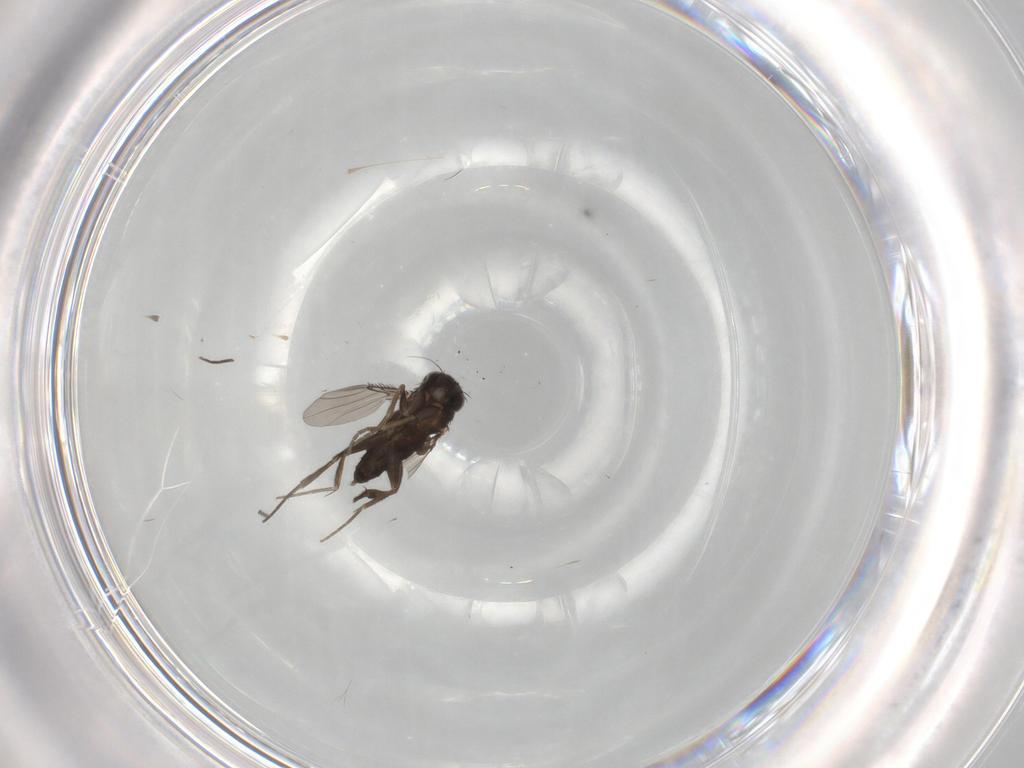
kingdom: Animalia
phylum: Arthropoda
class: Insecta
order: Diptera
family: Phoridae
